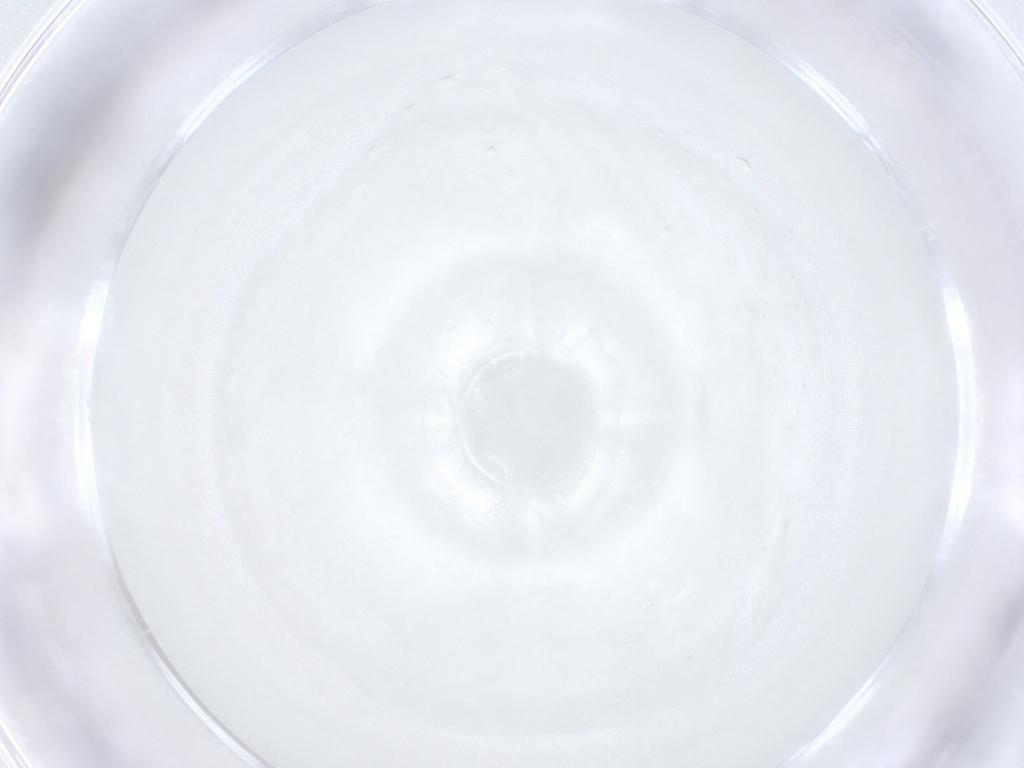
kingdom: Animalia
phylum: Arthropoda
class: Insecta
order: Diptera
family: Cecidomyiidae
